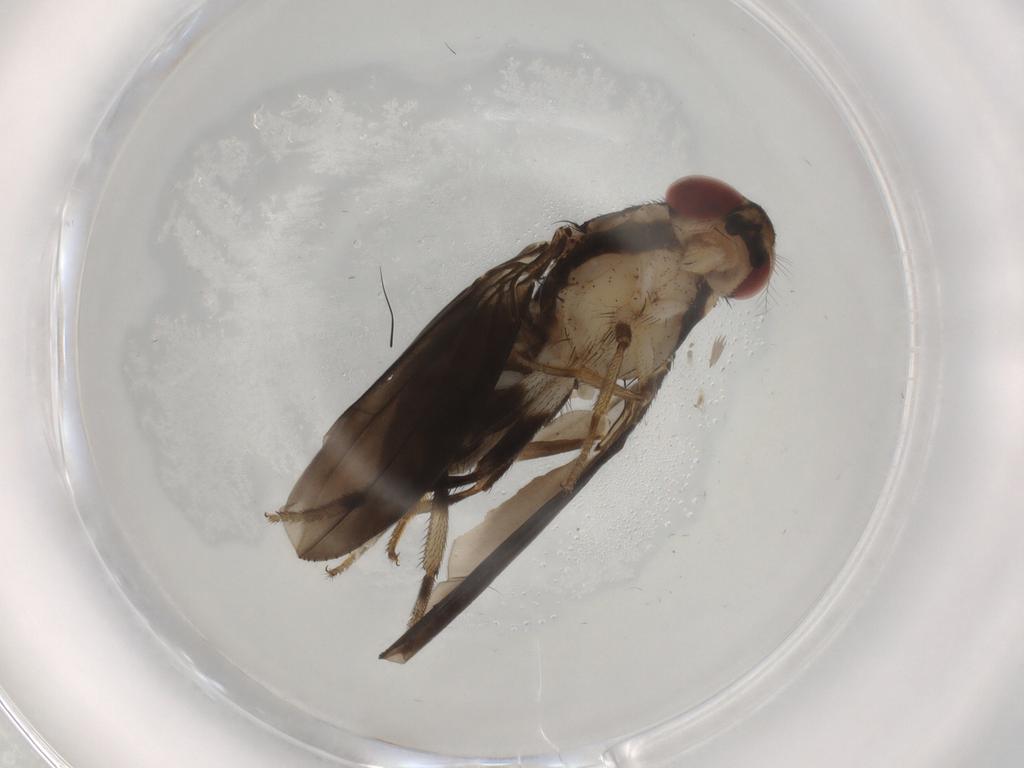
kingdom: Animalia
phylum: Arthropoda
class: Insecta
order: Diptera
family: Drosophilidae
